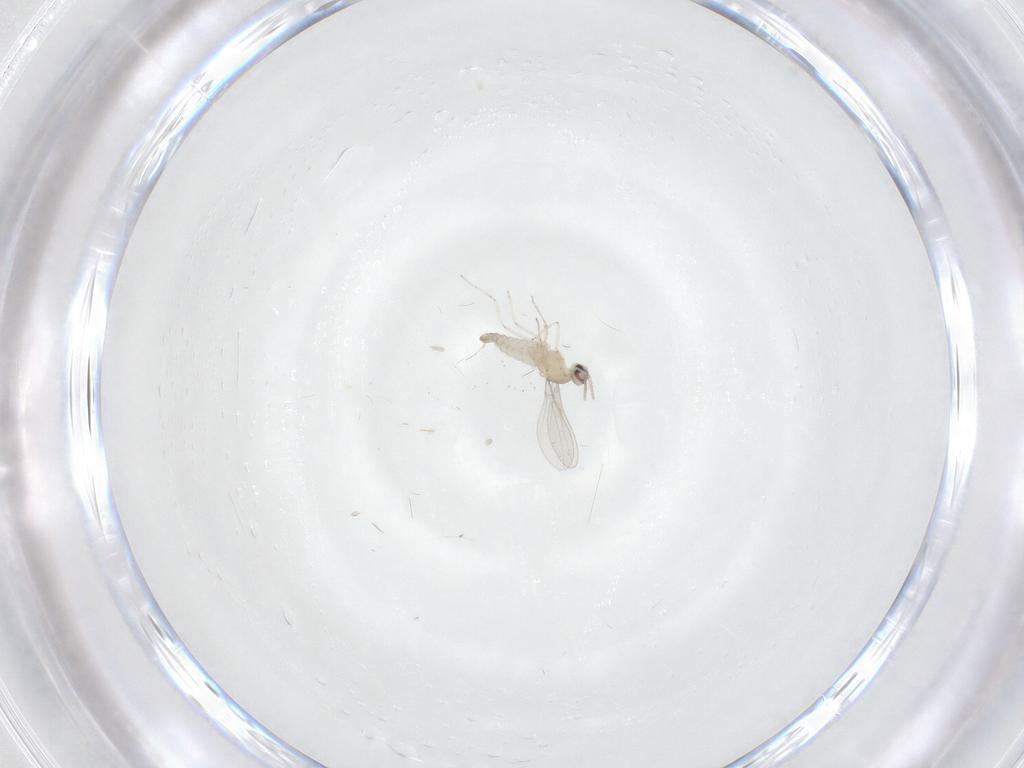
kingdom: Animalia
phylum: Arthropoda
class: Insecta
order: Diptera
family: Cecidomyiidae
